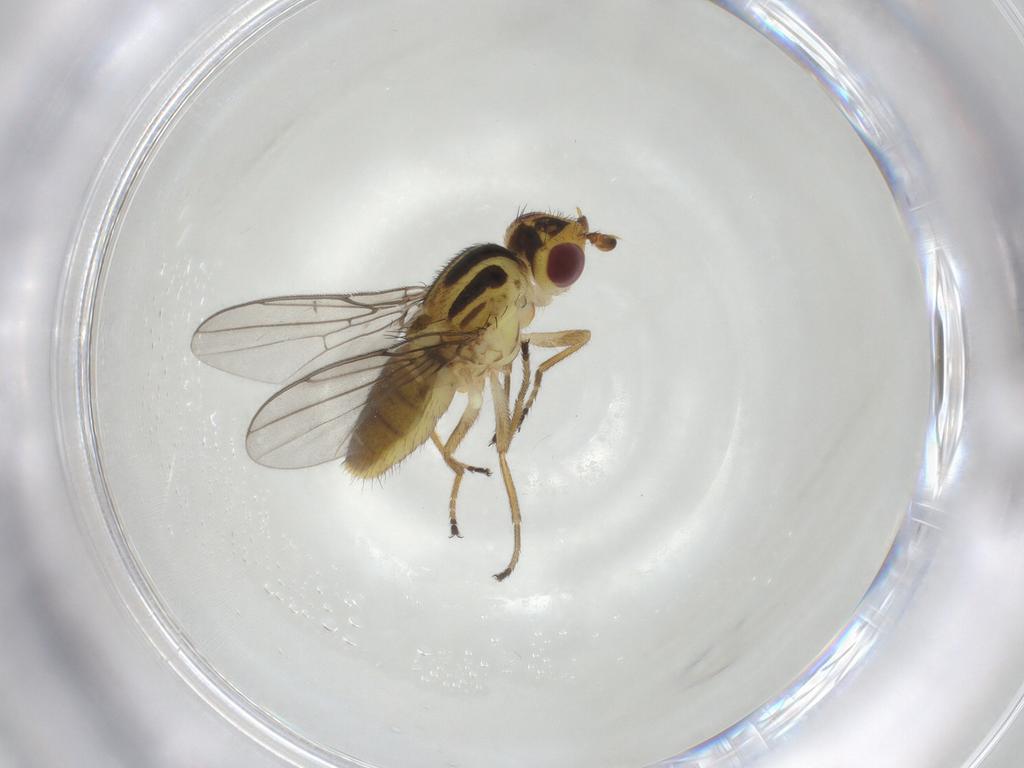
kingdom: Animalia
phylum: Arthropoda
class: Insecta
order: Diptera
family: Chloropidae
